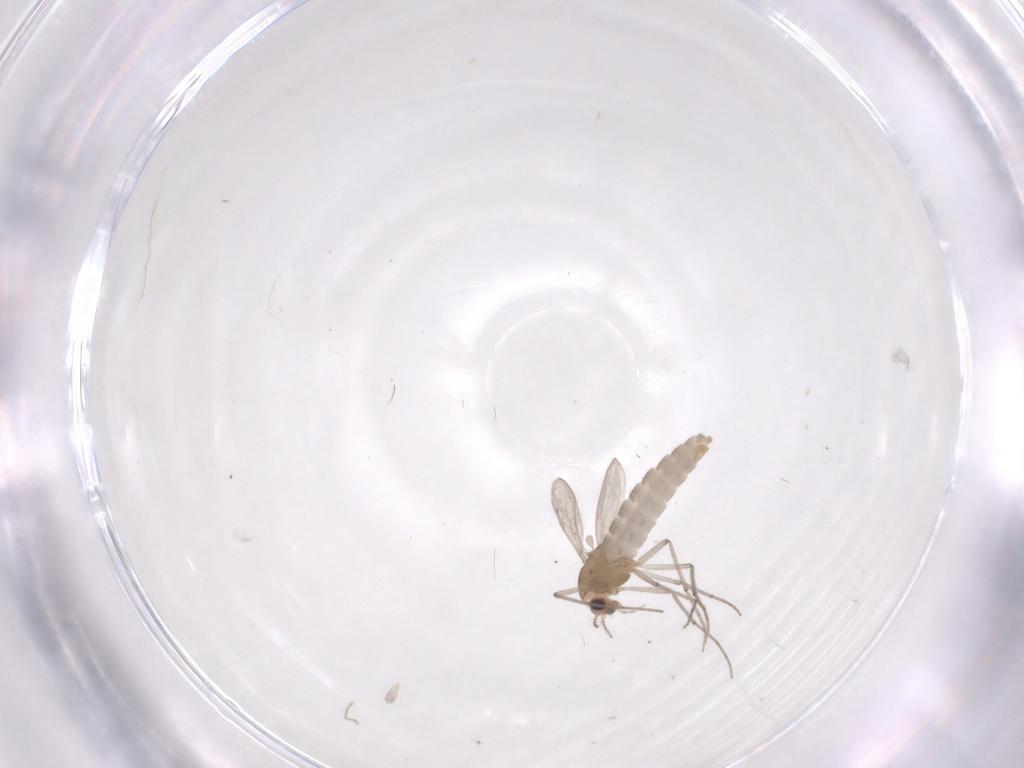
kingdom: Animalia
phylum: Arthropoda
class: Insecta
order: Diptera
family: Chironomidae
